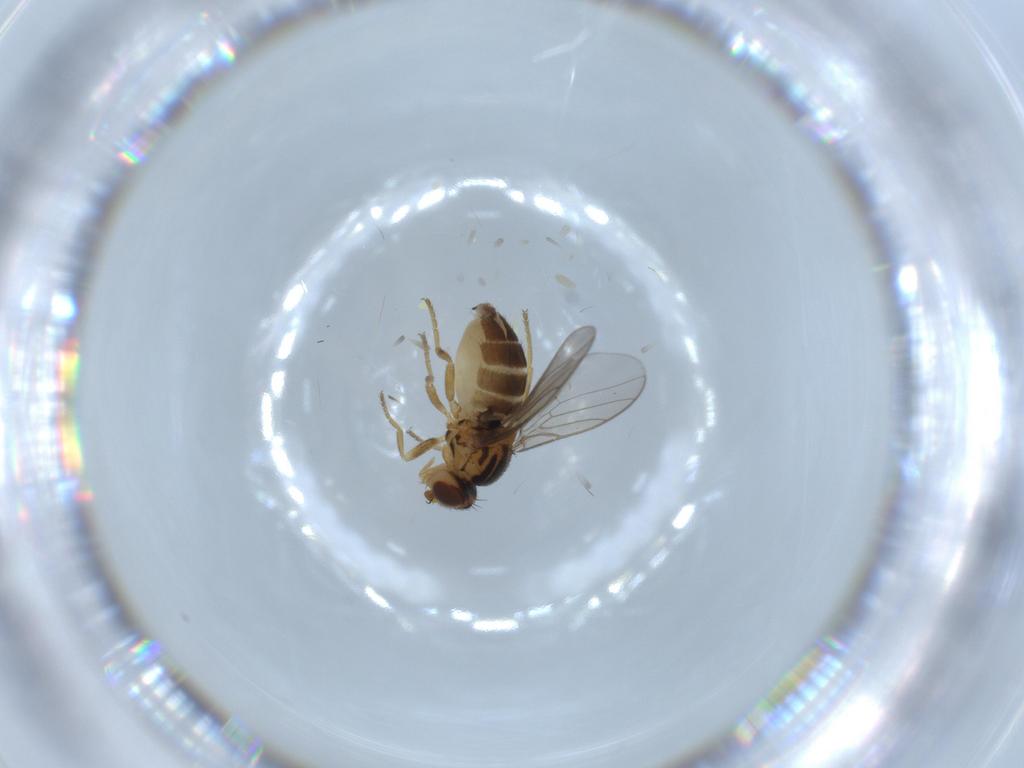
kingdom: Animalia
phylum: Arthropoda
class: Insecta
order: Diptera
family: Chloropidae
